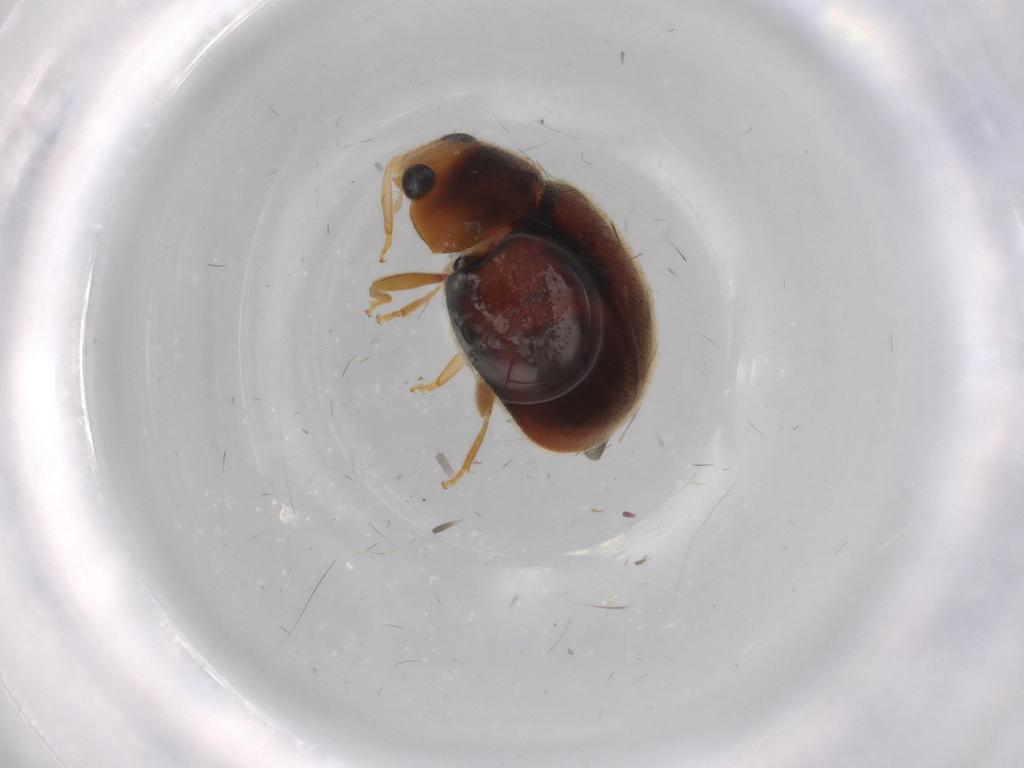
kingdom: Animalia
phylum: Arthropoda
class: Insecta
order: Coleoptera
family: Coccinellidae
